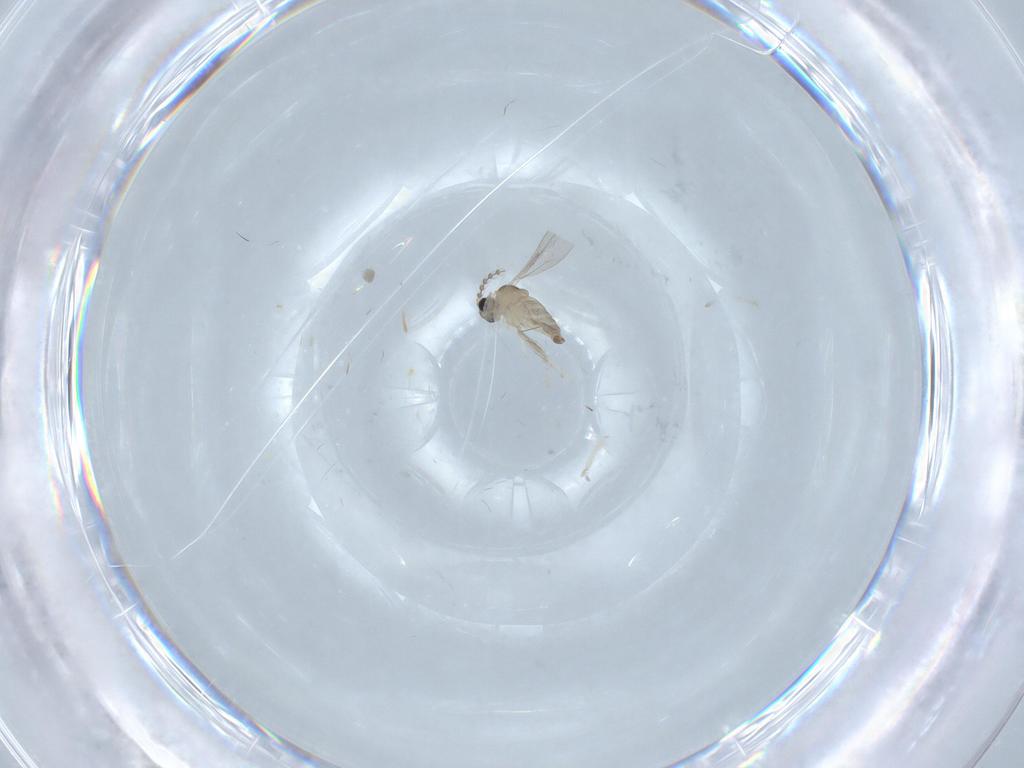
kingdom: Animalia
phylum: Arthropoda
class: Insecta
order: Diptera
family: Cecidomyiidae
